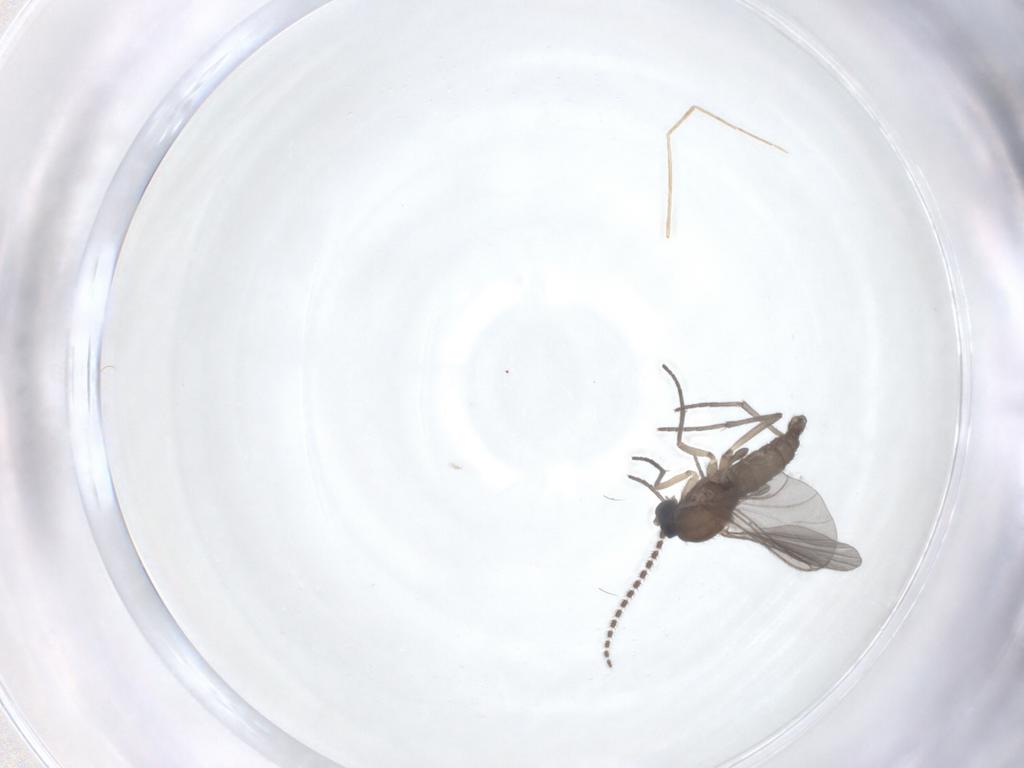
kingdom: Animalia
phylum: Arthropoda
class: Insecta
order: Diptera
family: Sciaridae
